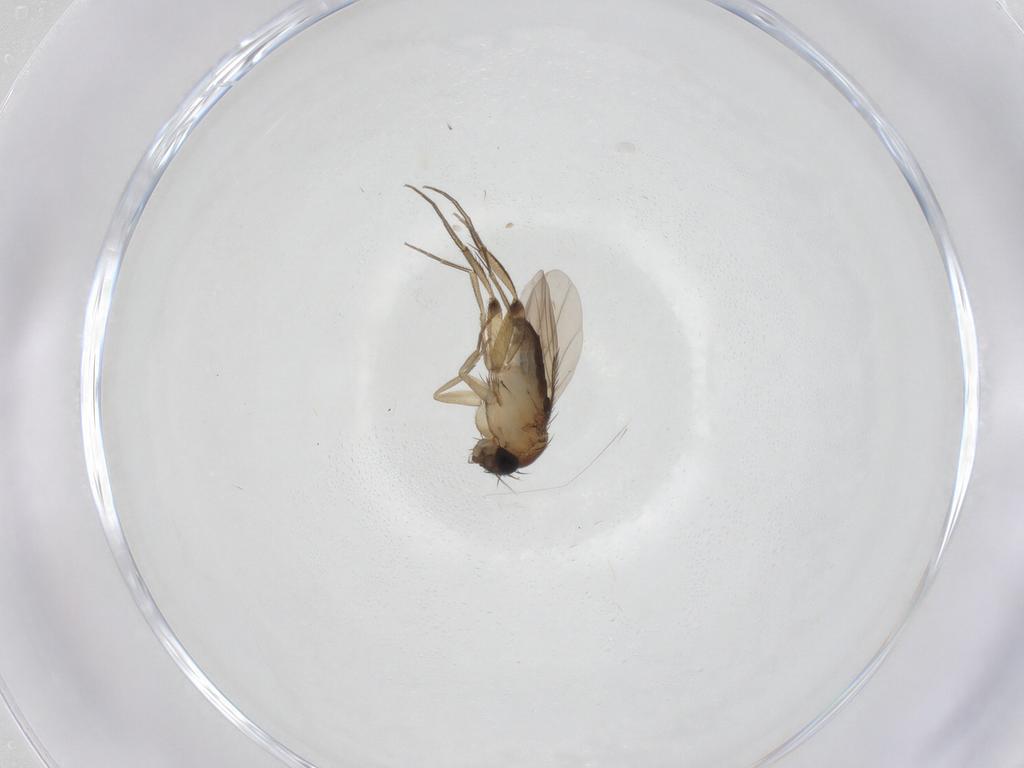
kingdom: Animalia
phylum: Arthropoda
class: Insecta
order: Diptera
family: Phoridae
